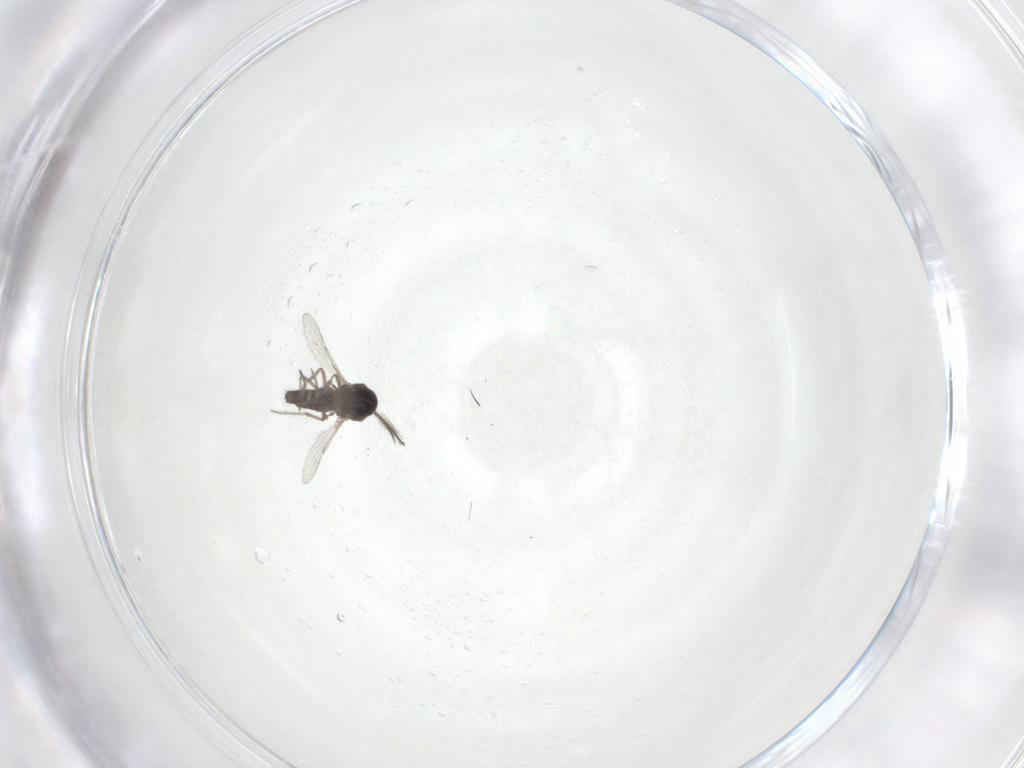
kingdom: Animalia
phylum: Arthropoda
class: Insecta
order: Diptera
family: Ceratopogonidae
